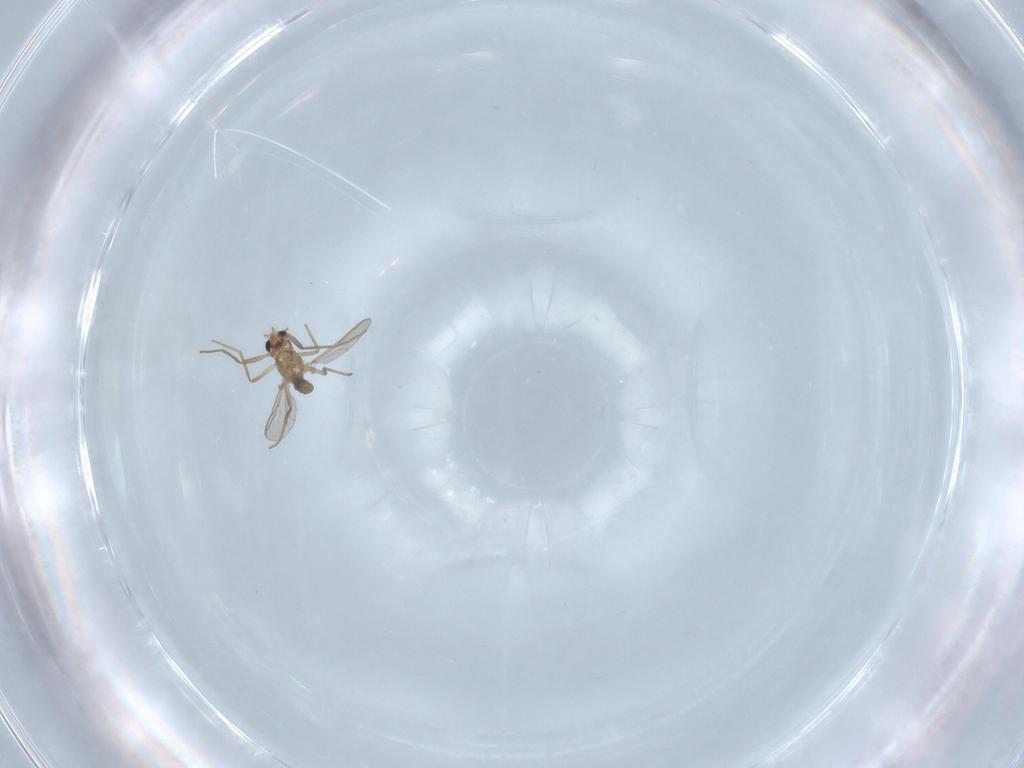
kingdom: Animalia
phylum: Arthropoda
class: Insecta
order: Diptera
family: Chironomidae
